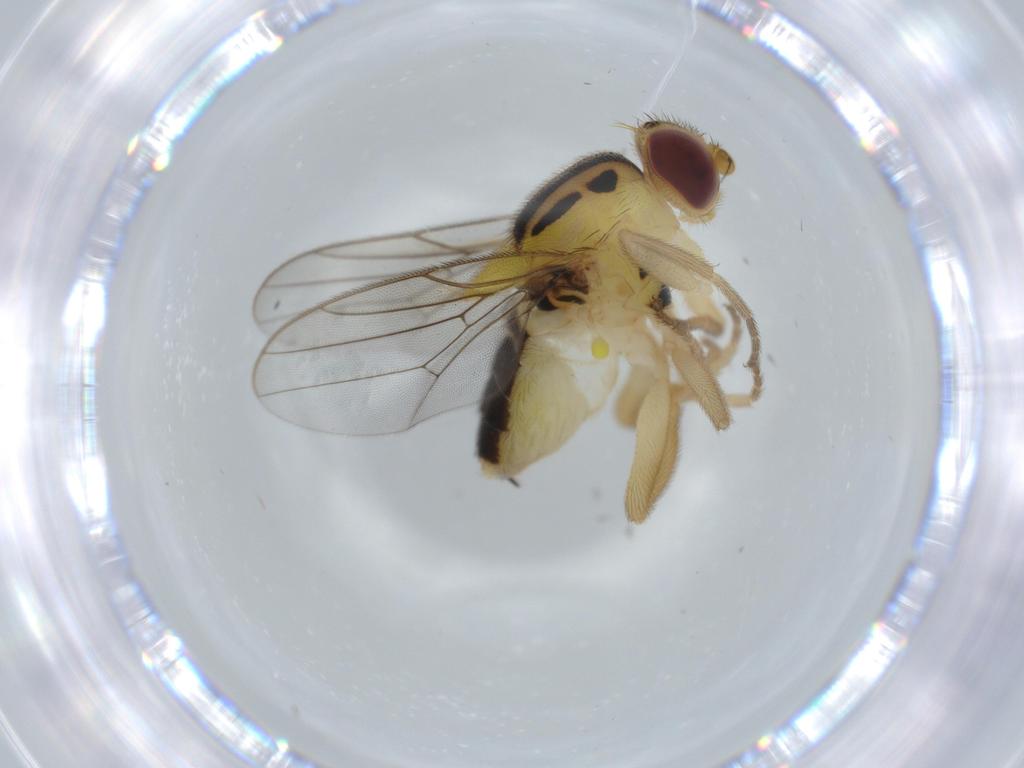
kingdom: Animalia
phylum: Arthropoda
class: Insecta
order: Diptera
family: Chloropidae
